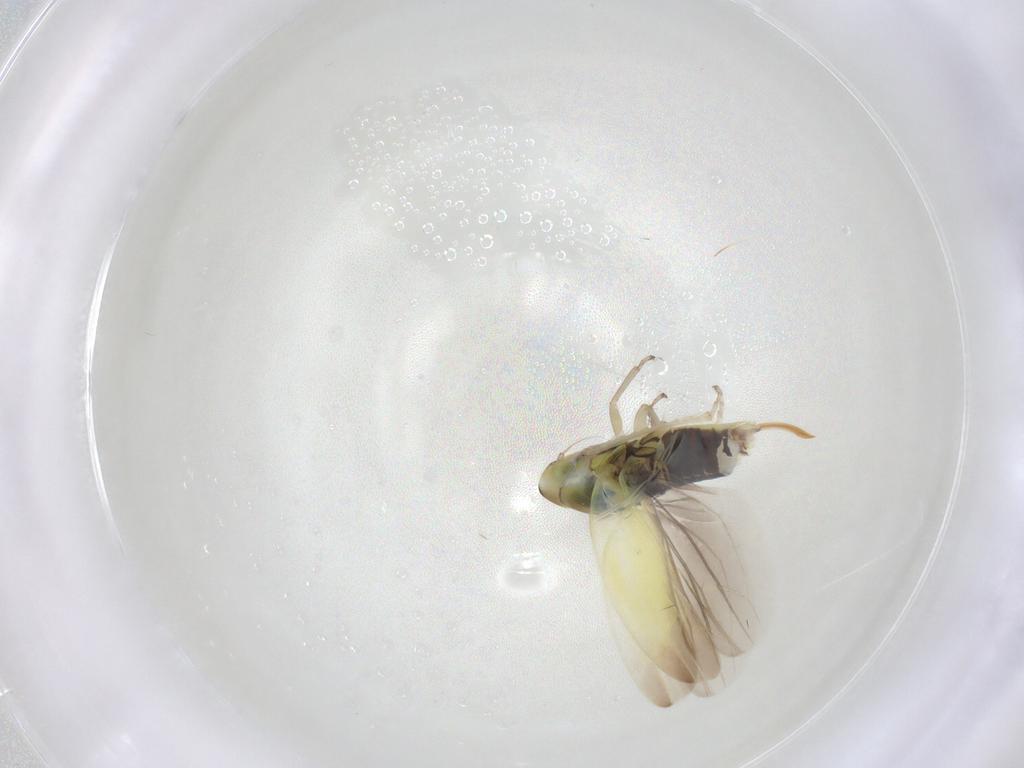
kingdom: Animalia
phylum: Arthropoda
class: Insecta
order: Hemiptera
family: Cicadellidae
